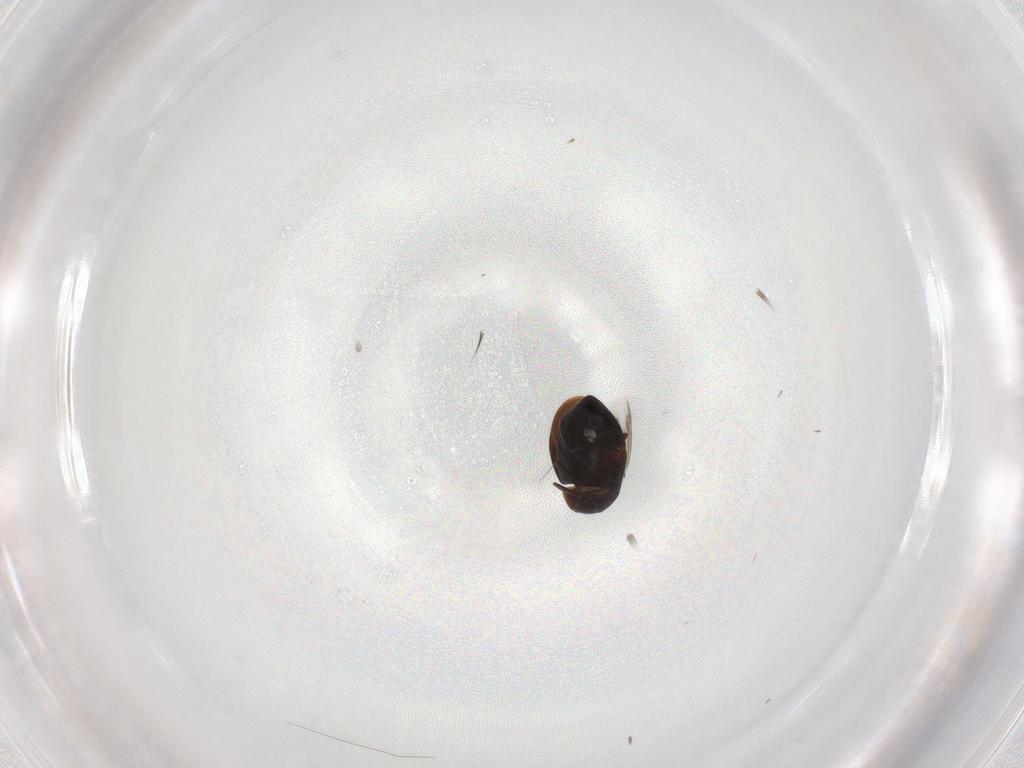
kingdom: Animalia
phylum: Arthropoda
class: Insecta
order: Coleoptera
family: Corylophidae
